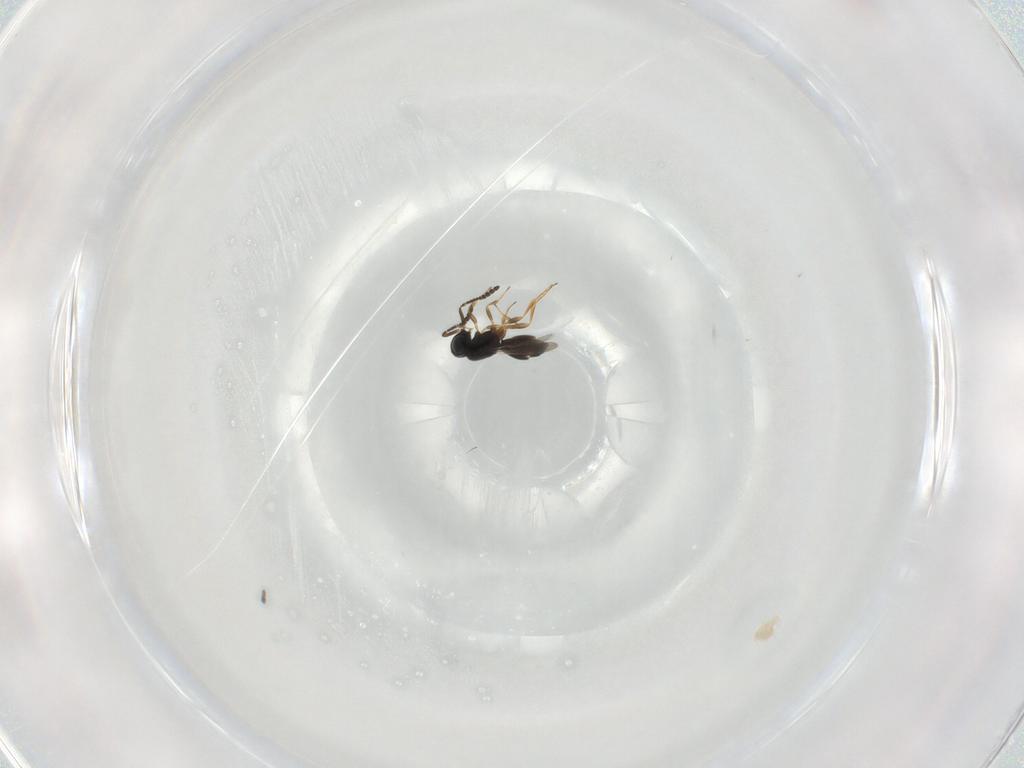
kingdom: Animalia
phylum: Arthropoda
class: Insecta
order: Hymenoptera
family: Scelionidae
